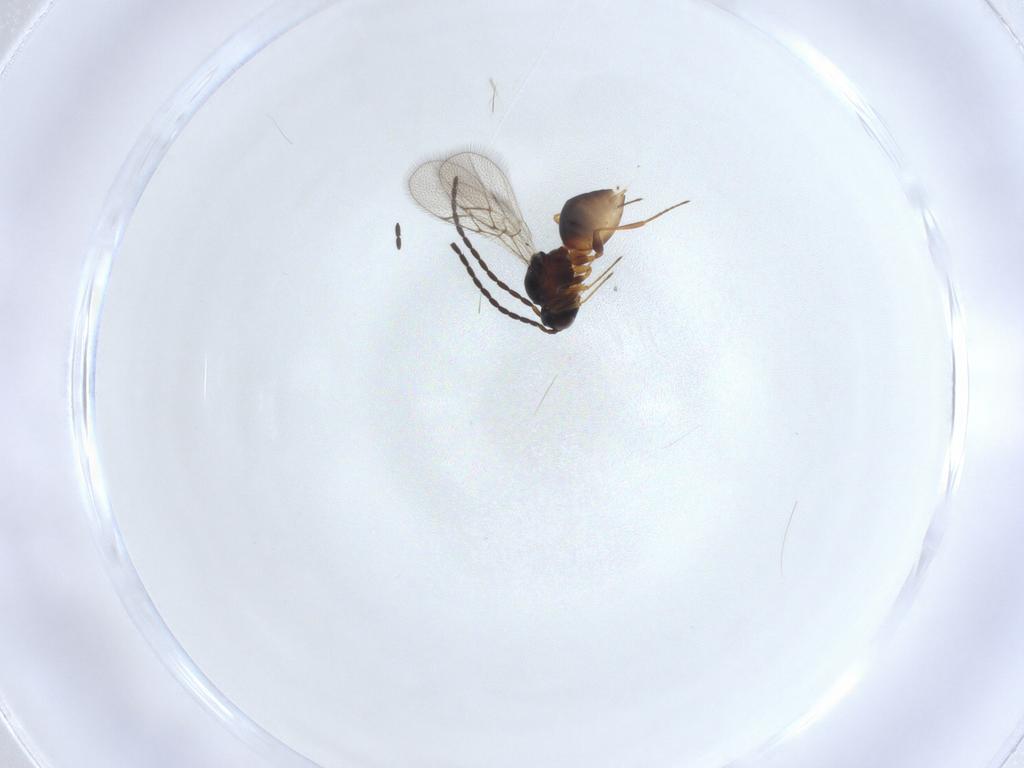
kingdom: Animalia
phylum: Arthropoda
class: Insecta
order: Hymenoptera
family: Figitidae
